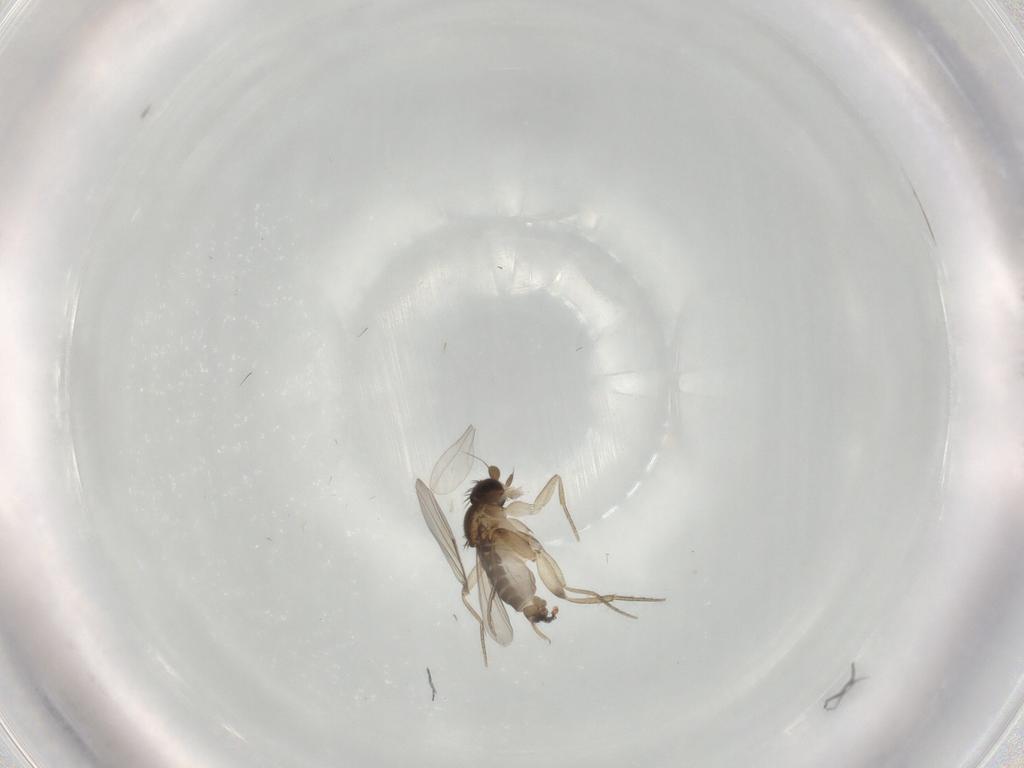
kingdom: Animalia
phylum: Arthropoda
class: Insecta
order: Diptera
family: Phoridae
